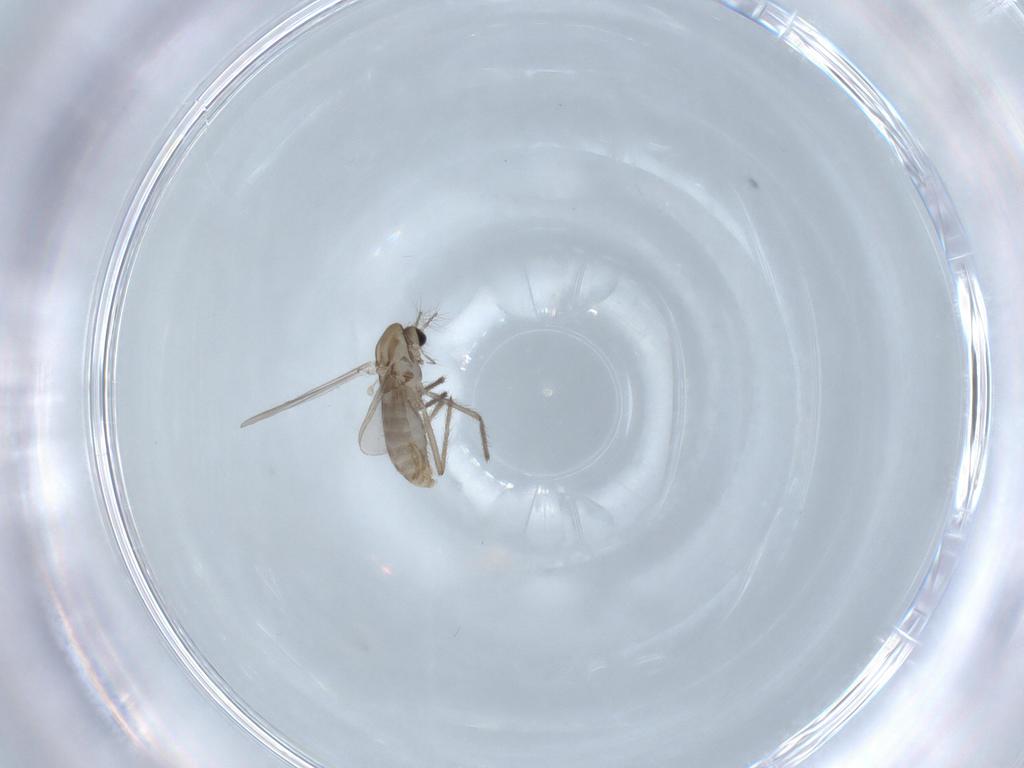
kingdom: Animalia
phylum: Arthropoda
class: Insecta
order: Diptera
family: Chironomidae
